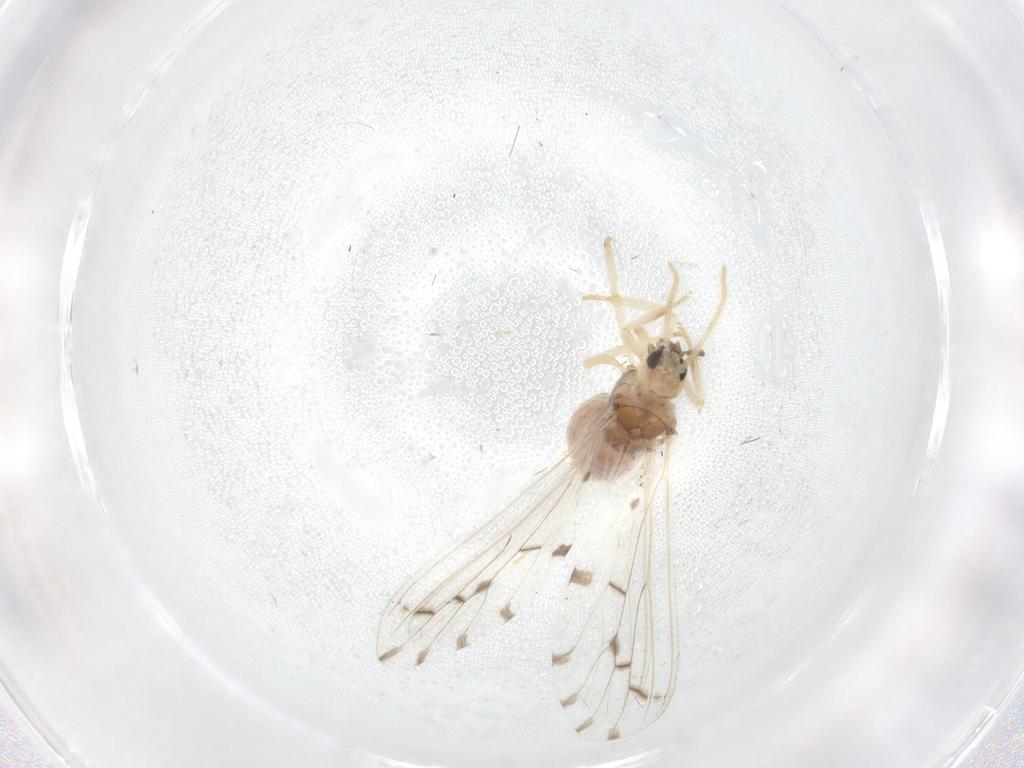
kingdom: Animalia
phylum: Arthropoda
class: Insecta
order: Neuroptera
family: Coniopterygidae
